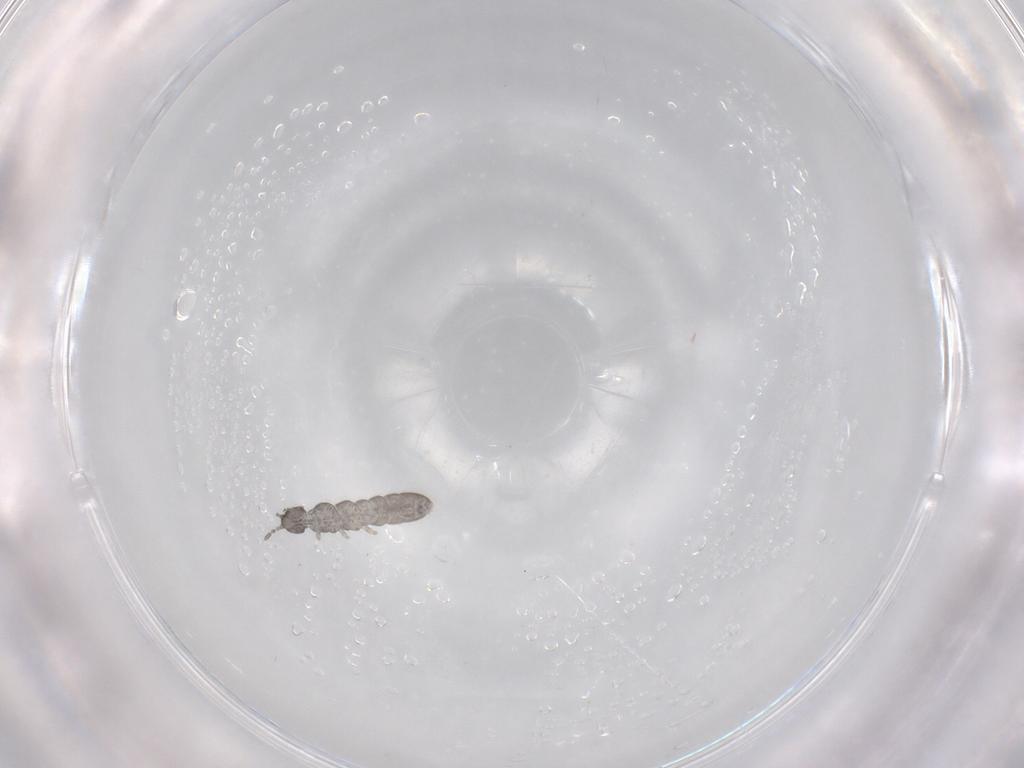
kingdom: Animalia
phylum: Arthropoda
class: Collembola
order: Entomobryomorpha
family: Isotomidae
